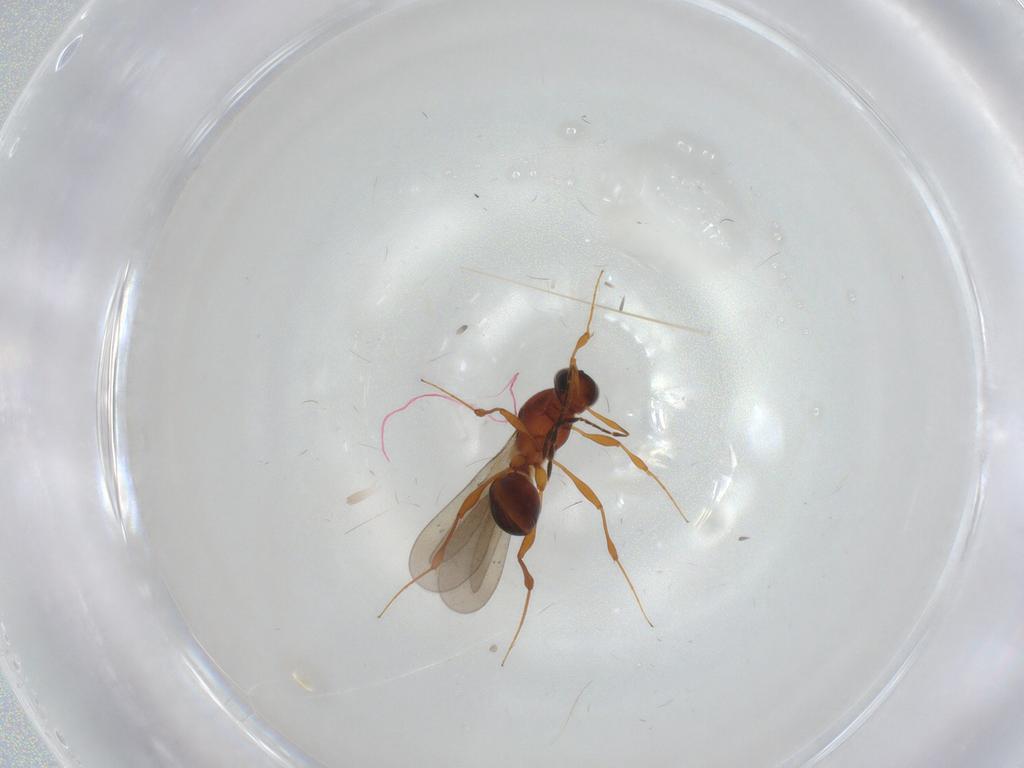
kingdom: Animalia
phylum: Arthropoda
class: Insecta
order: Hymenoptera
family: Platygastridae
